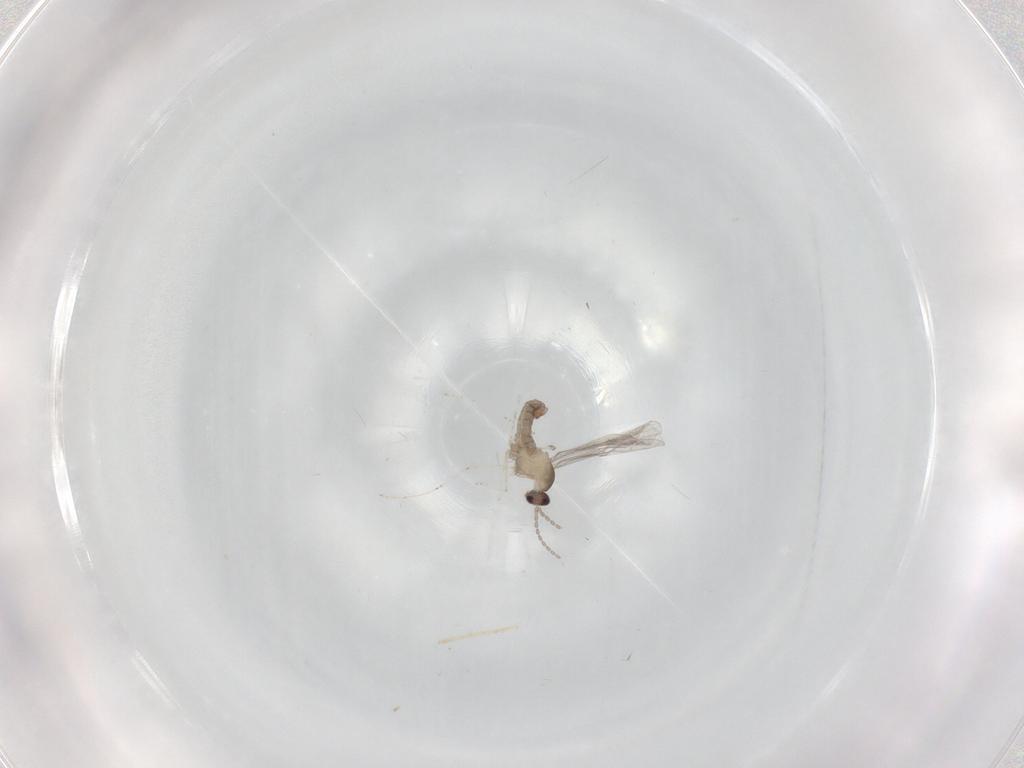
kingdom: Animalia
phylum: Arthropoda
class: Insecta
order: Diptera
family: Cecidomyiidae
